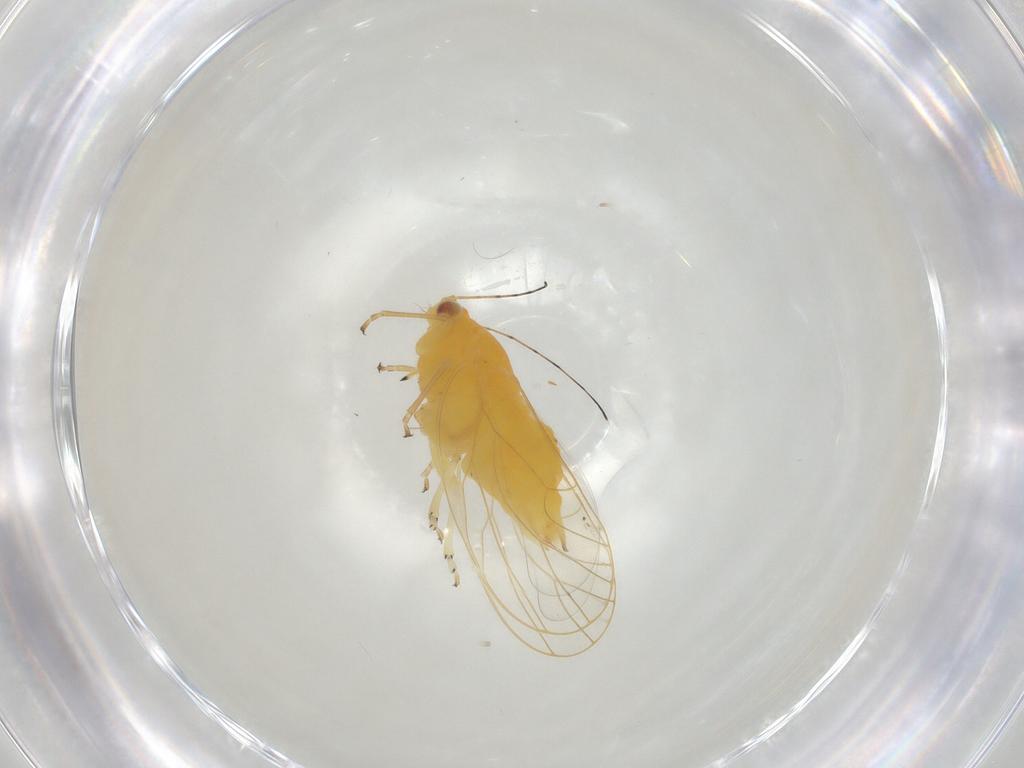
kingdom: Animalia
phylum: Arthropoda
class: Insecta
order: Hemiptera
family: Psyllidae
